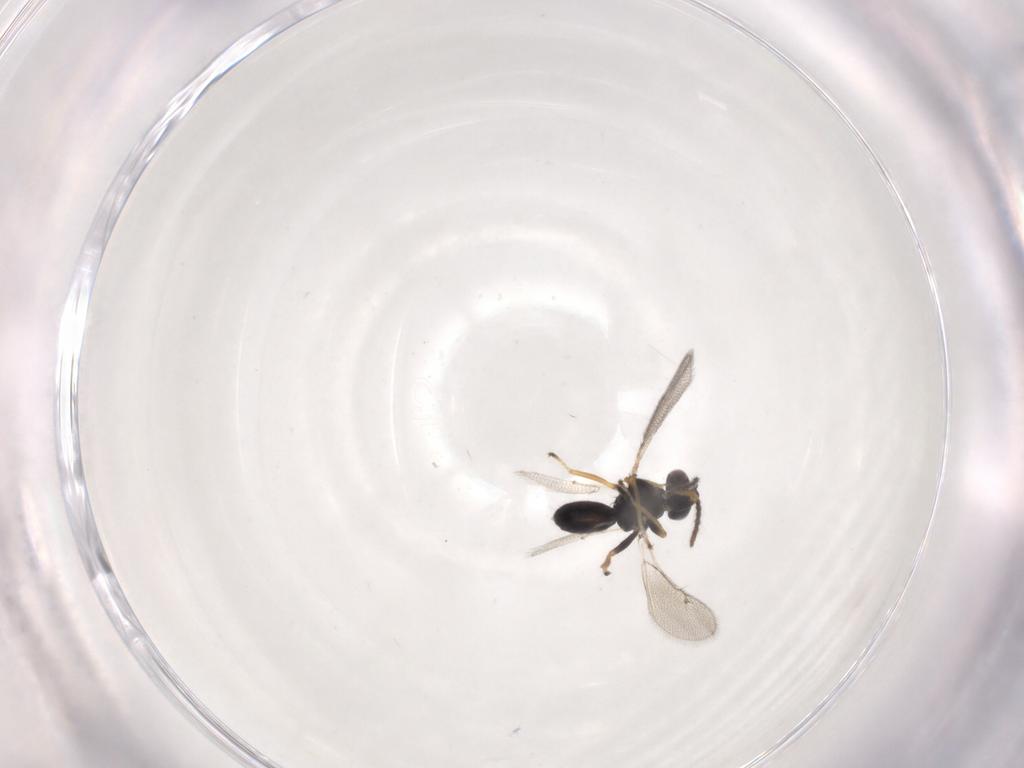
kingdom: Animalia
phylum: Arthropoda
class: Insecta
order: Hymenoptera
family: Eulophidae
